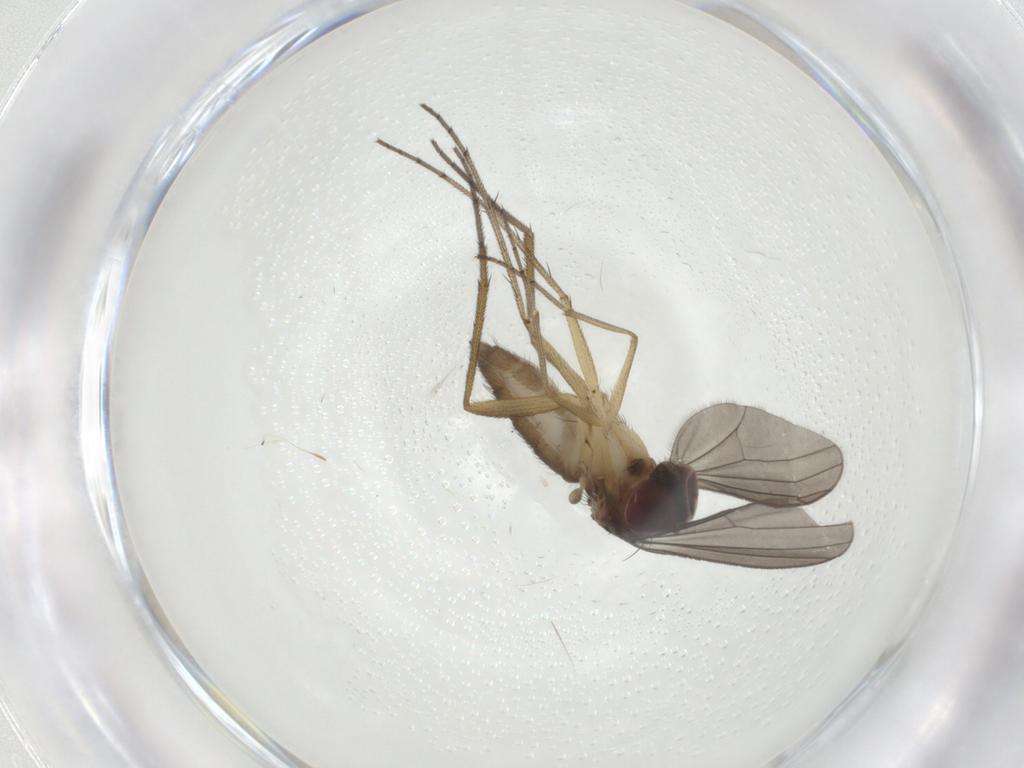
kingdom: Animalia
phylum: Arthropoda
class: Insecta
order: Diptera
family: Dolichopodidae
